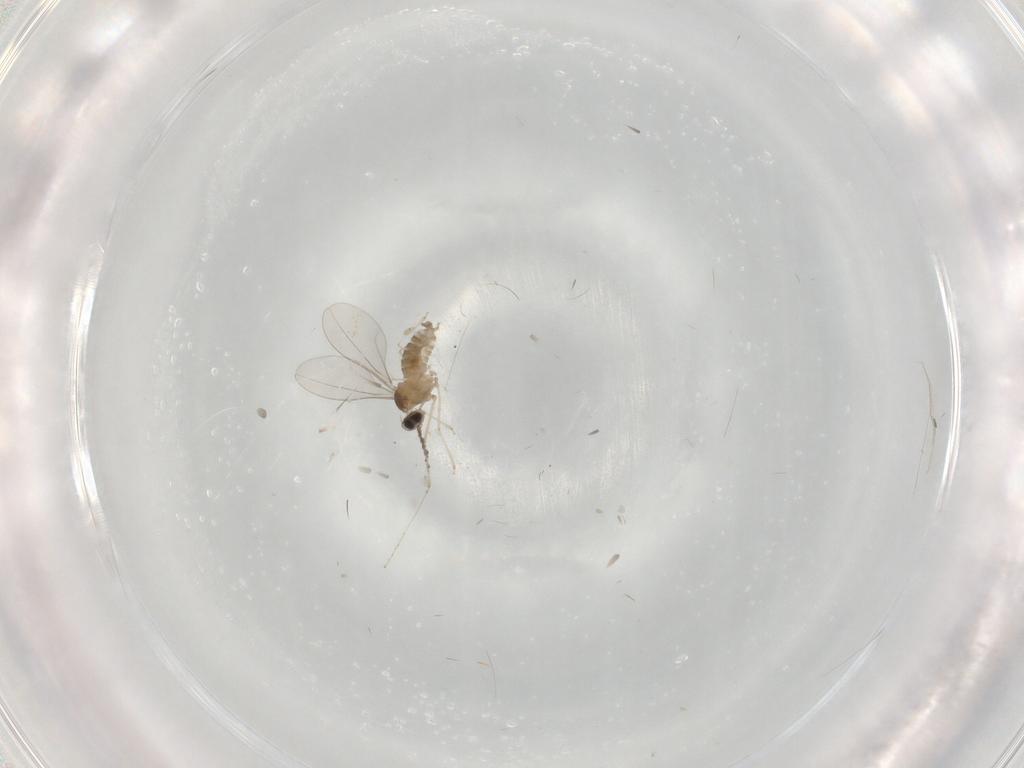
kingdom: Animalia
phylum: Arthropoda
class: Insecta
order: Diptera
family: Cecidomyiidae
